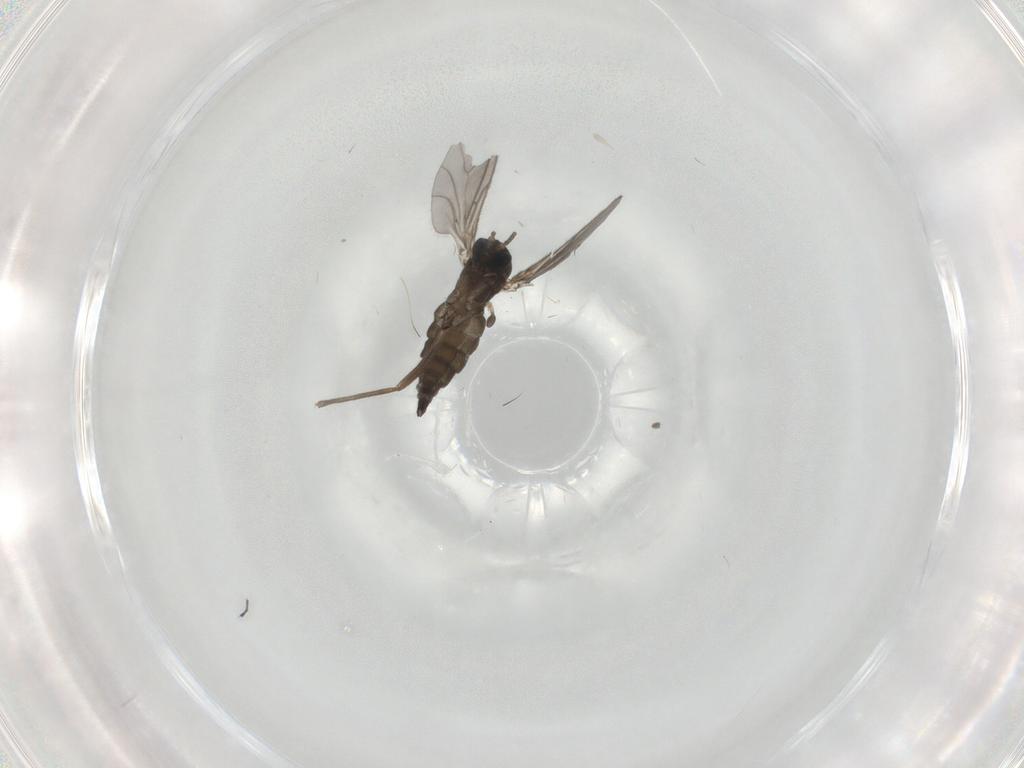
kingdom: Animalia
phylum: Arthropoda
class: Insecta
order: Diptera
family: Sciaridae
